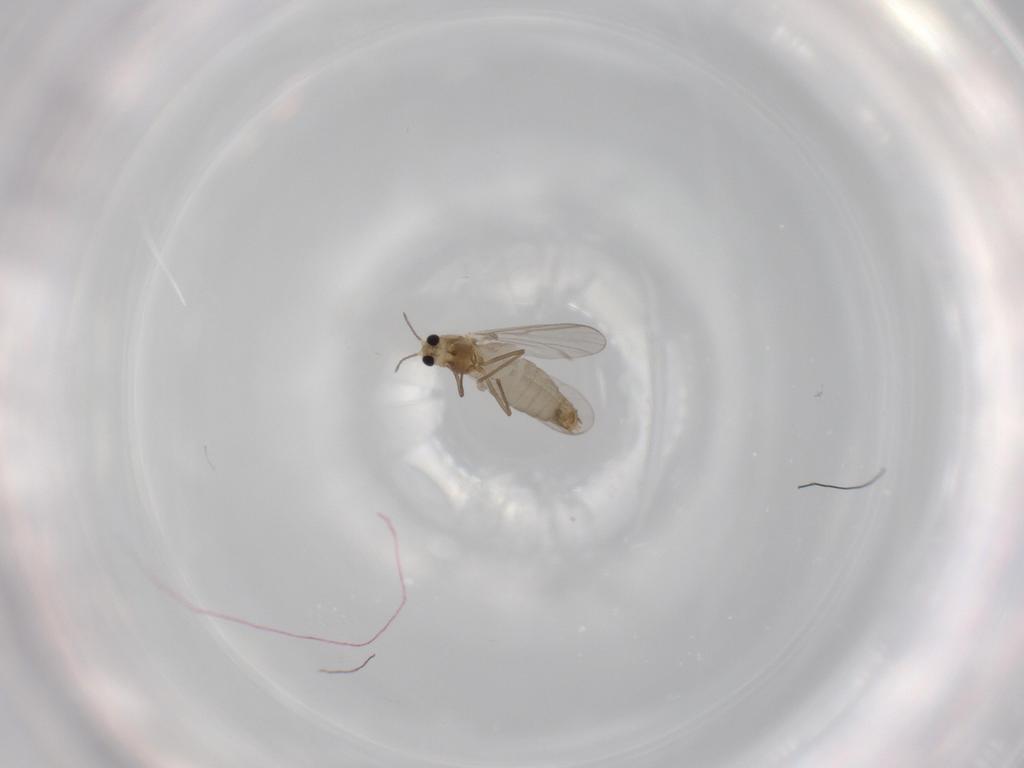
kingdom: Animalia
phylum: Arthropoda
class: Insecta
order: Diptera
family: Chironomidae
